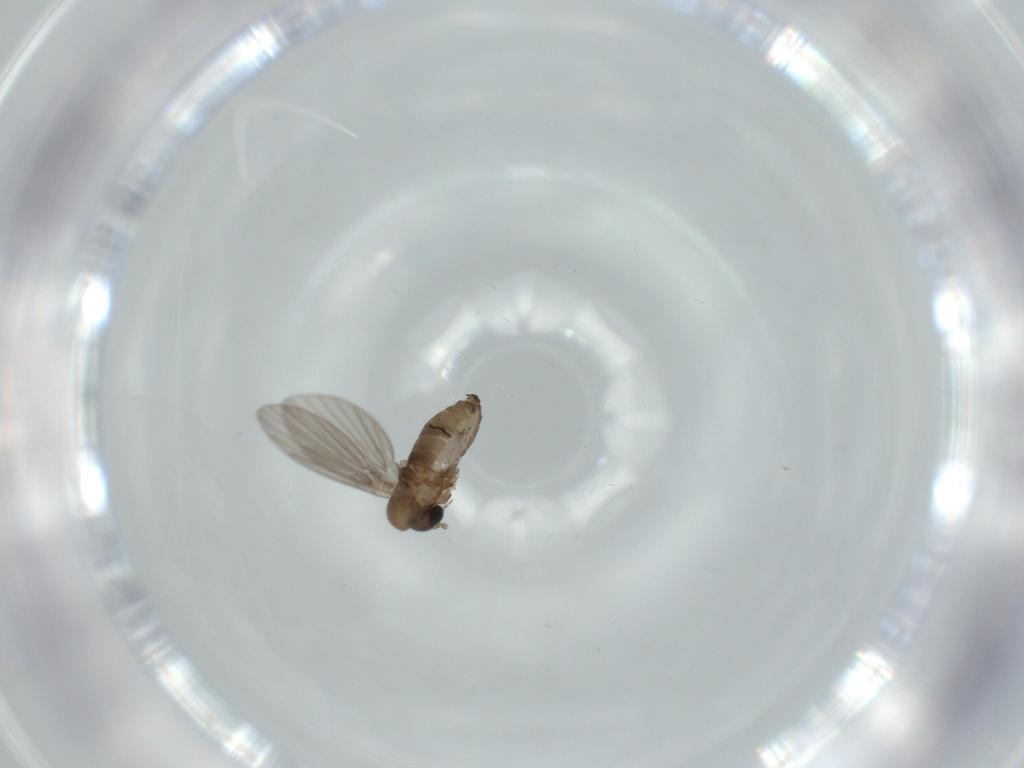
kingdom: Animalia
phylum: Arthropoda
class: Insecta
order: Diptera
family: Psychodidae
